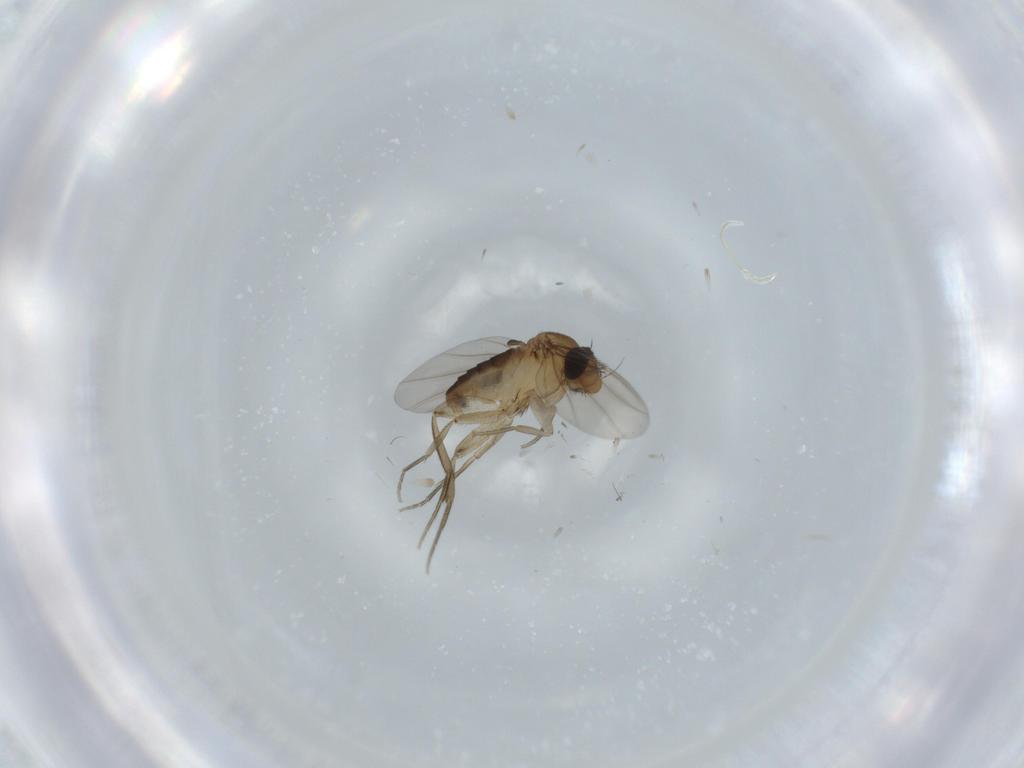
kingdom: Animalia
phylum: Arthropoda
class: Insecta
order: Diptera
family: Phoridae
